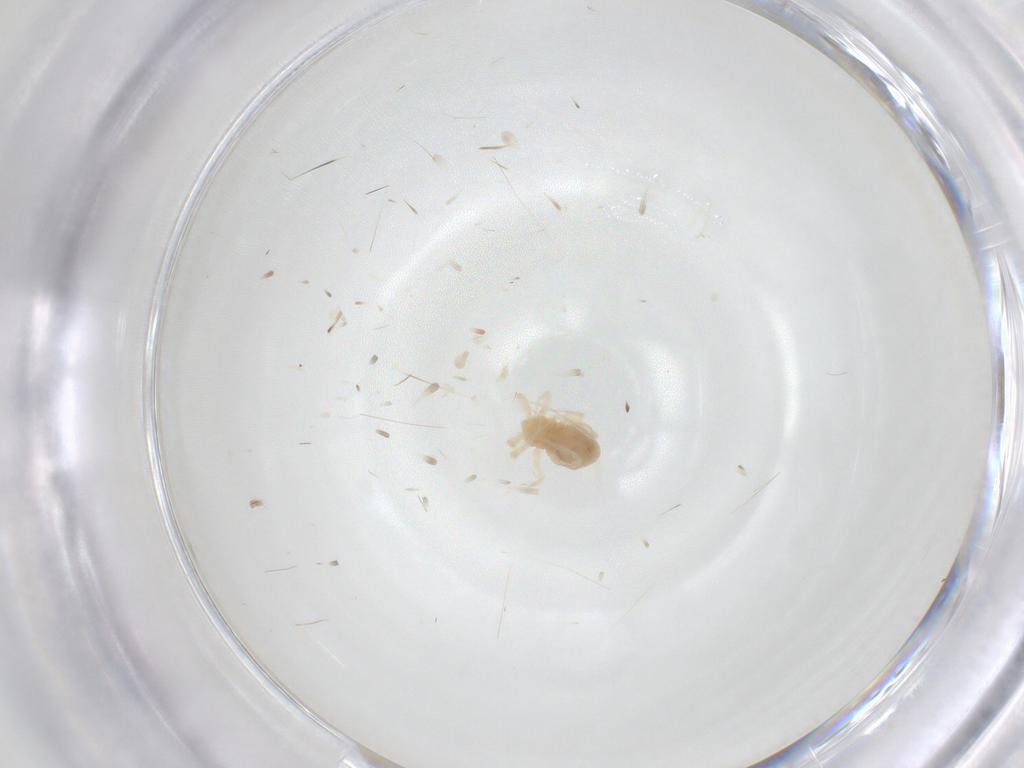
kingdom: Animalia
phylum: Arthropoda
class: Arachnida
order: Trombidiformes
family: Anystidae
